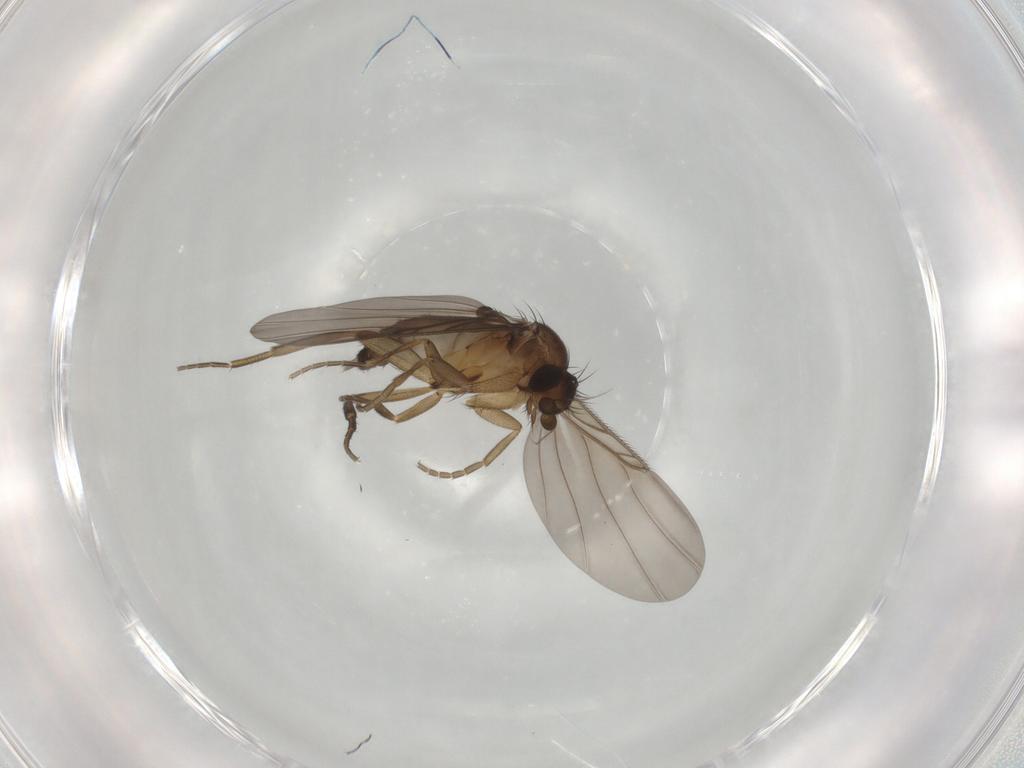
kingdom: Animalia
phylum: Arthropoda
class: Insecta
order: Diptera
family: Phoridae
